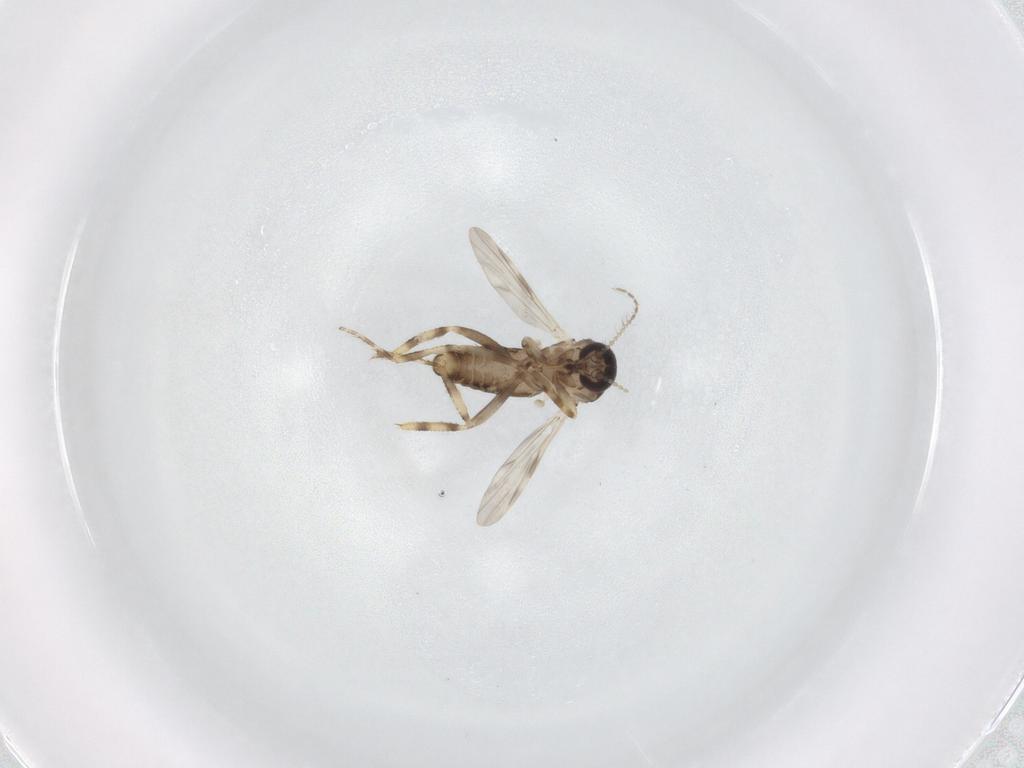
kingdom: Animalia
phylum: Arthropoda
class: Insecta
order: Diptera
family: Ceratopogonidae
